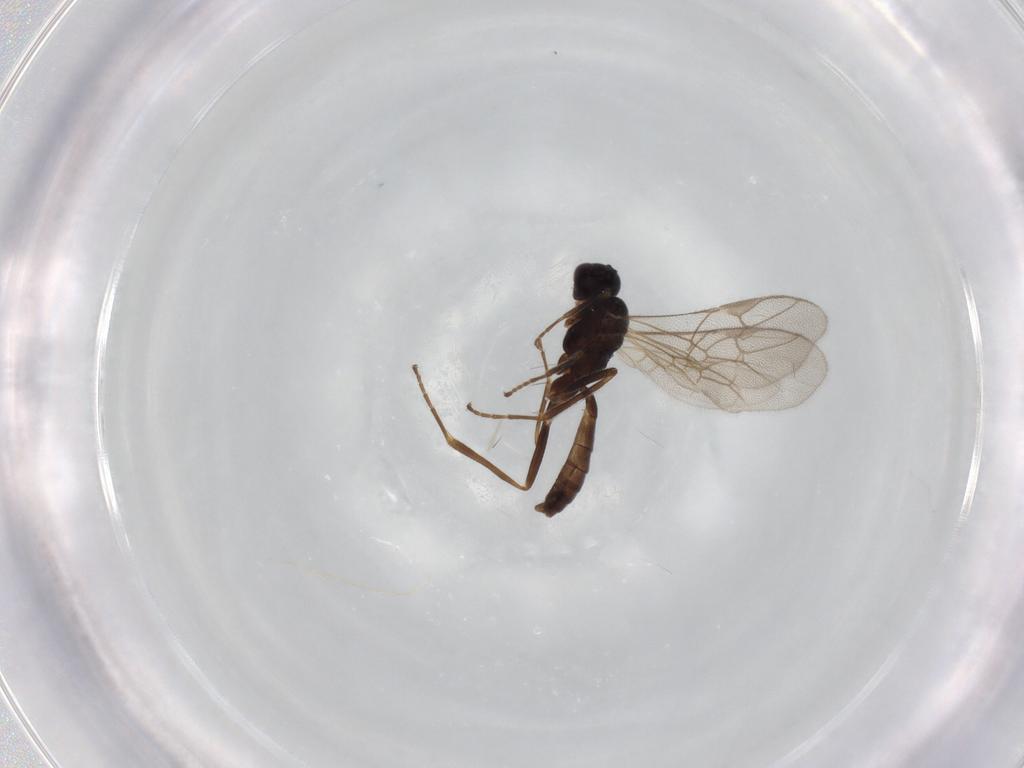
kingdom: Animalia
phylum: Arthropoda
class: Insecta
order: Hymenoptera
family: Ichneumonidae
